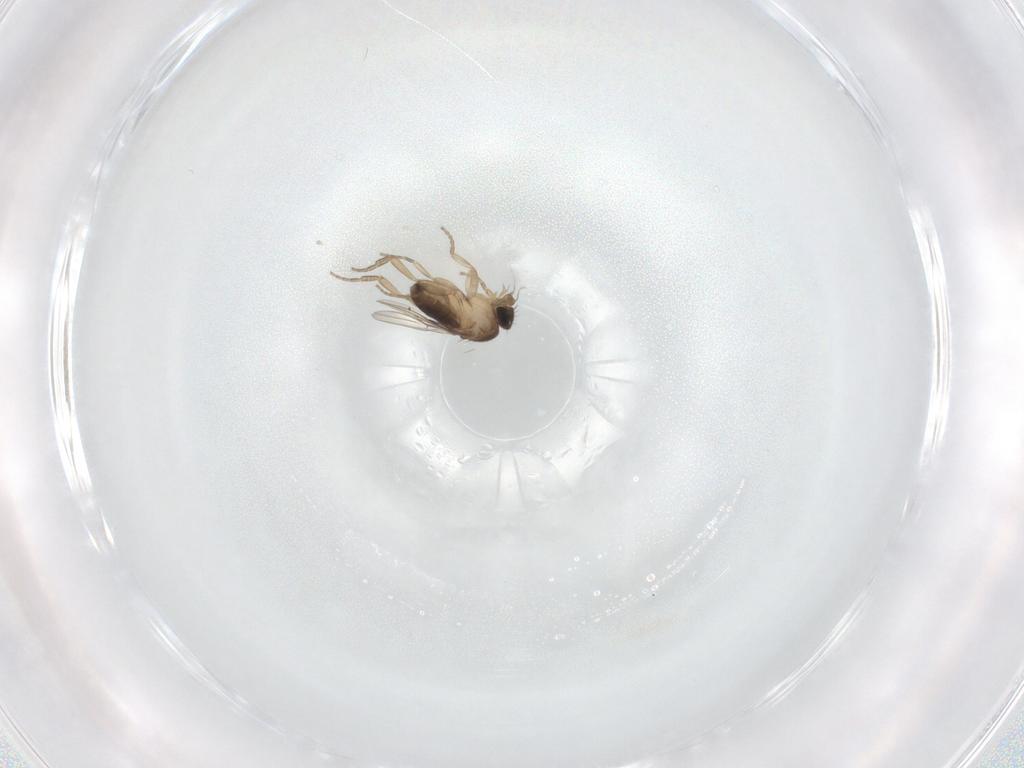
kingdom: Animalia
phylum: Arthropoda
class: Insecta
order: Diptera
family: Phoridae
